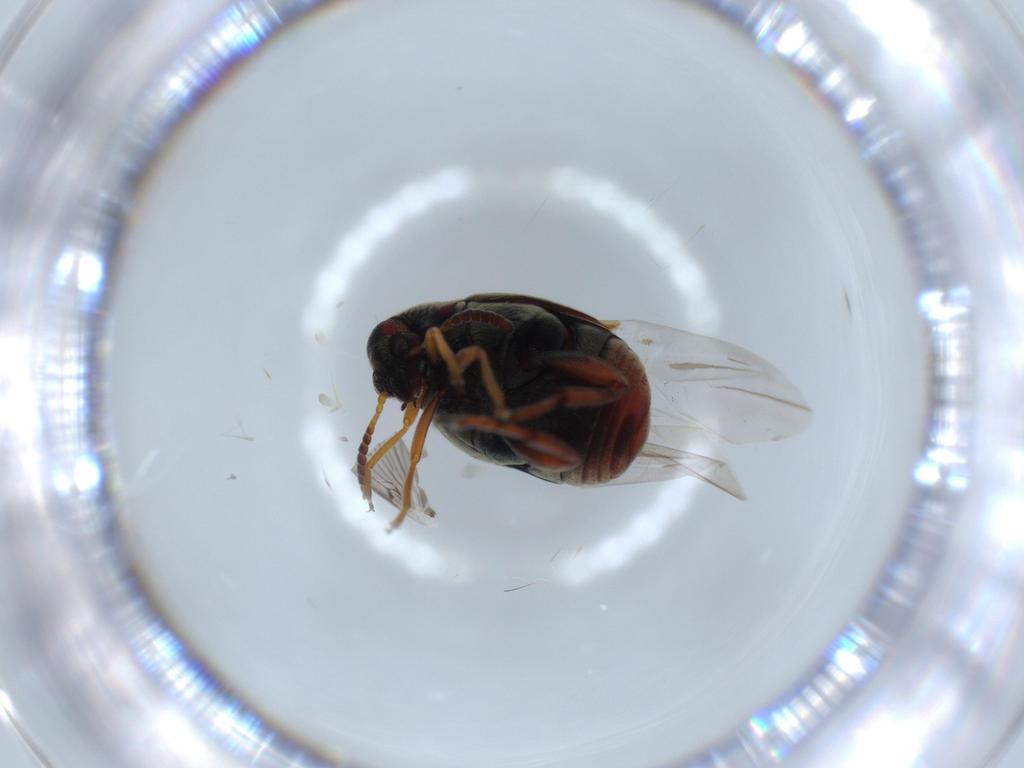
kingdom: Animalia
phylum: Arthropoda
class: Insecta
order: Coleoptera
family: Chrysomelidae
